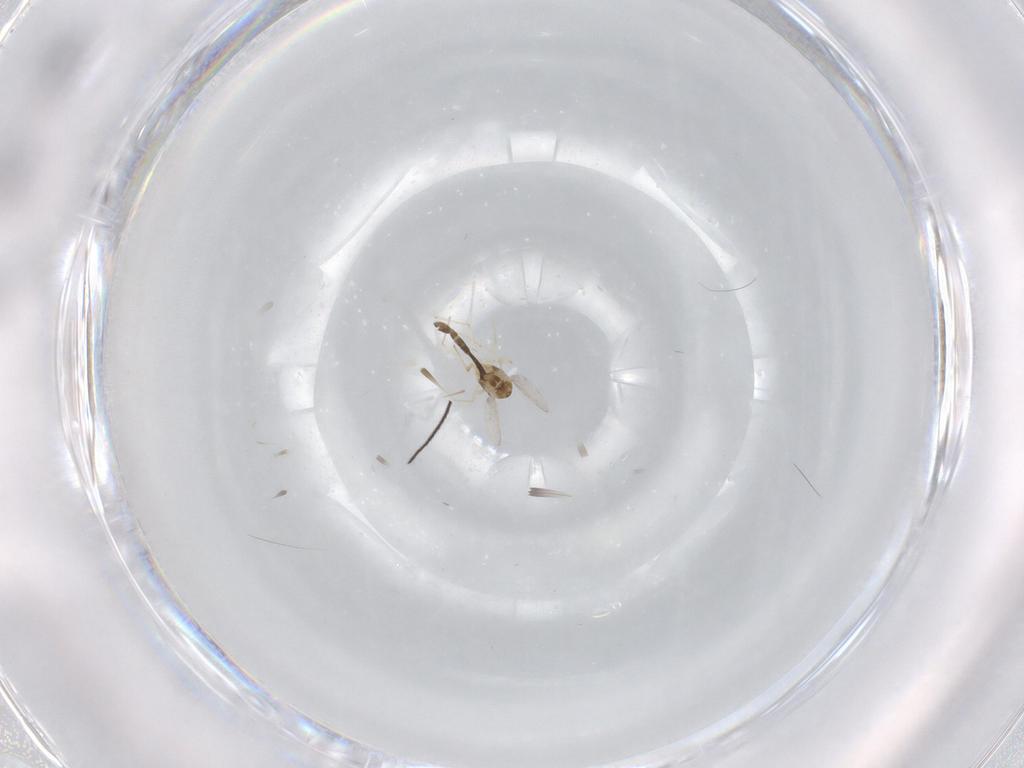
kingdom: Animalia
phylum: Arthropoda
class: Insecta
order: Diptera
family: Chironomidae
